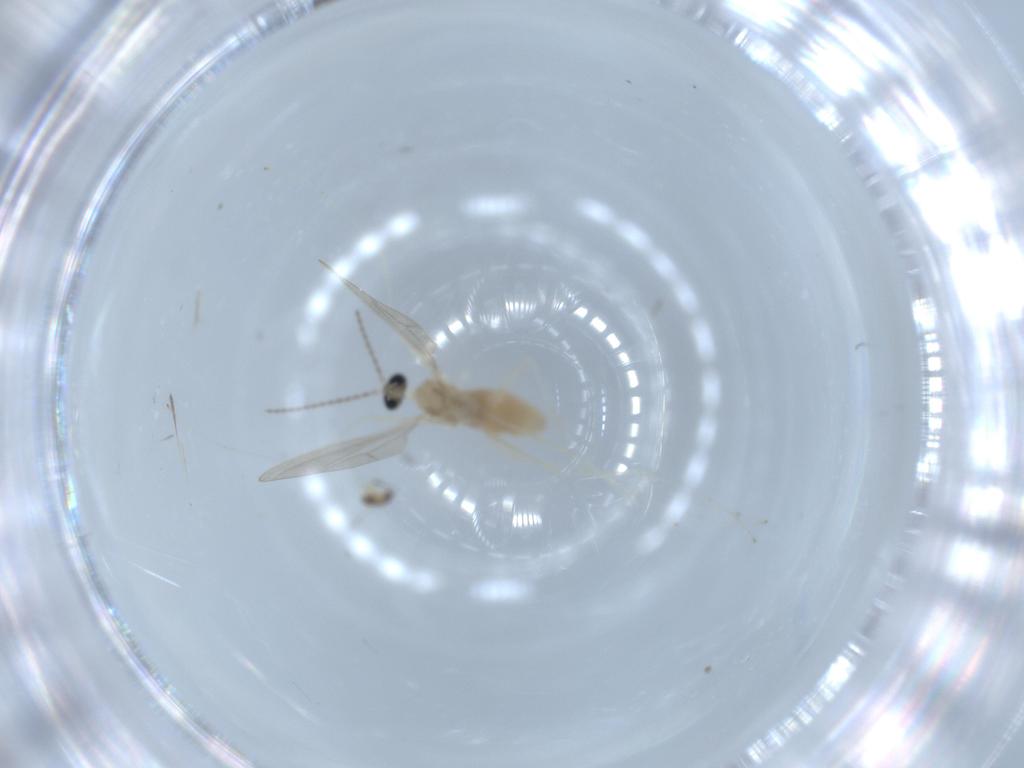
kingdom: Animalia
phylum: Arthropoda
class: Insecta
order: Diptera
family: Cecidomyiidae
